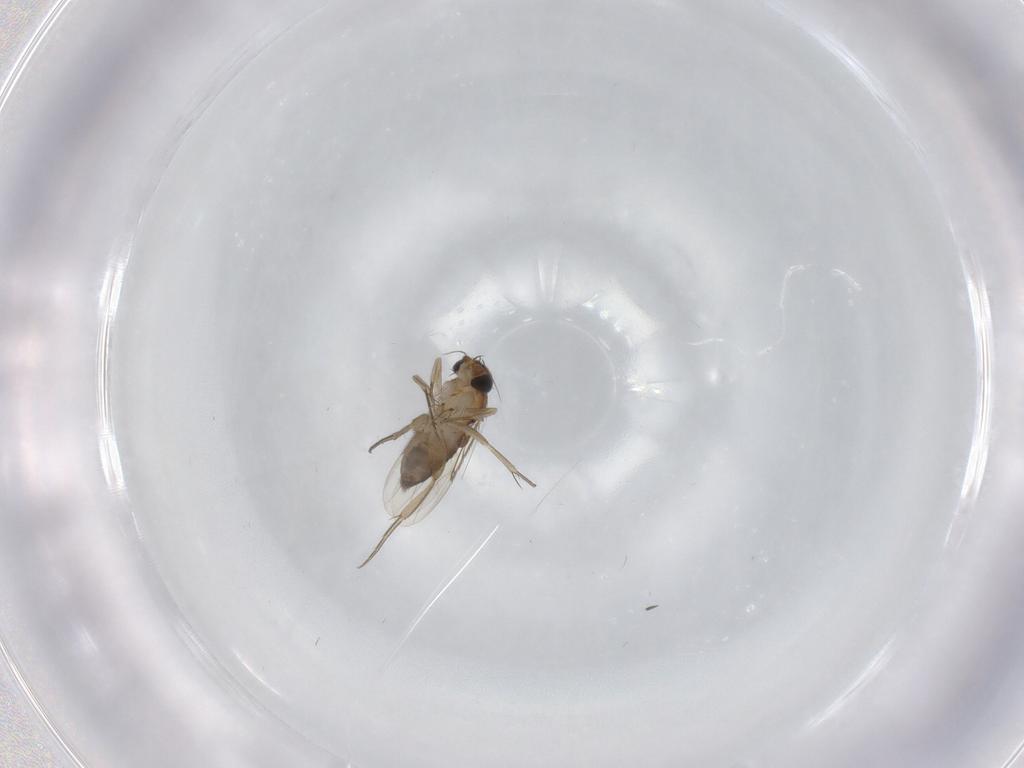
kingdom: Animalia
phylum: Arthropoda
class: Insecta
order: Diptera
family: Phoridae
